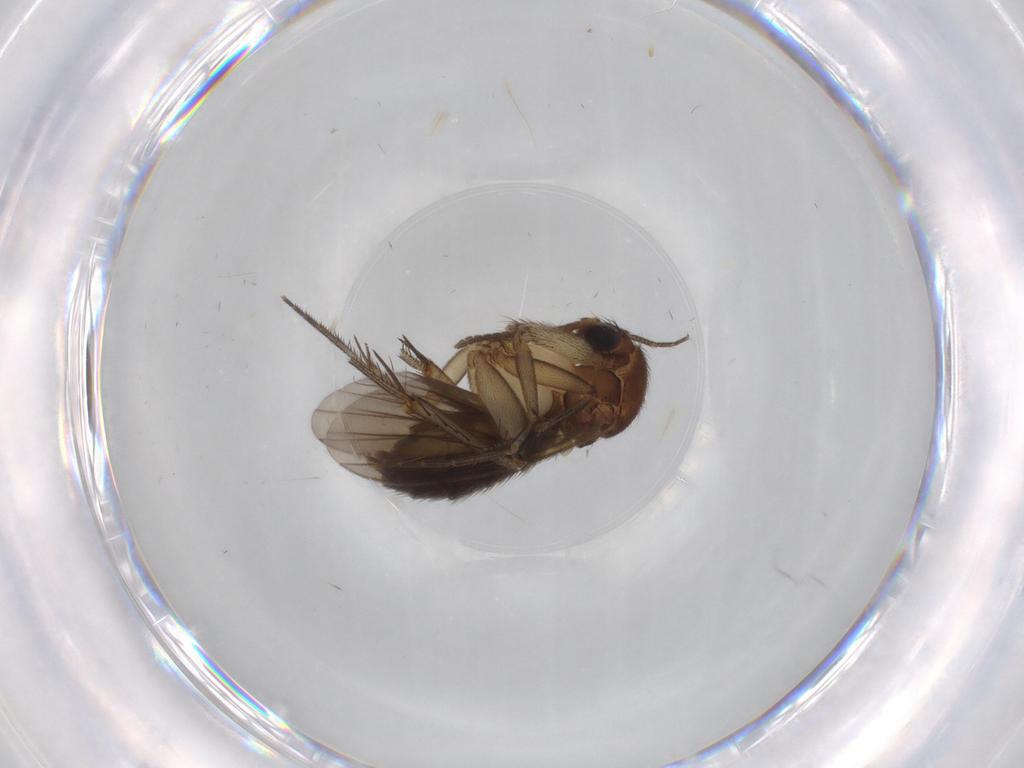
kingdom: Animalia
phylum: Arthropoda
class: Insecta
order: Diptera
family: Mycetophilidae
